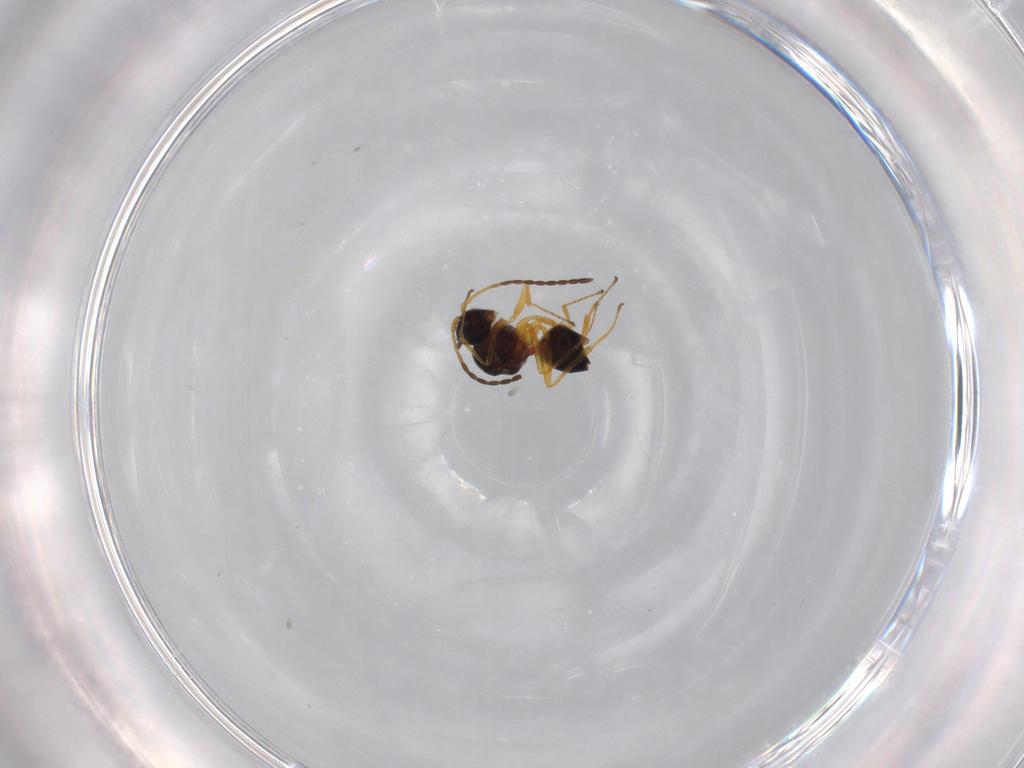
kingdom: Animalia
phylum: Arthropoda
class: Insecta
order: Hymenoptera
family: Figitidae
